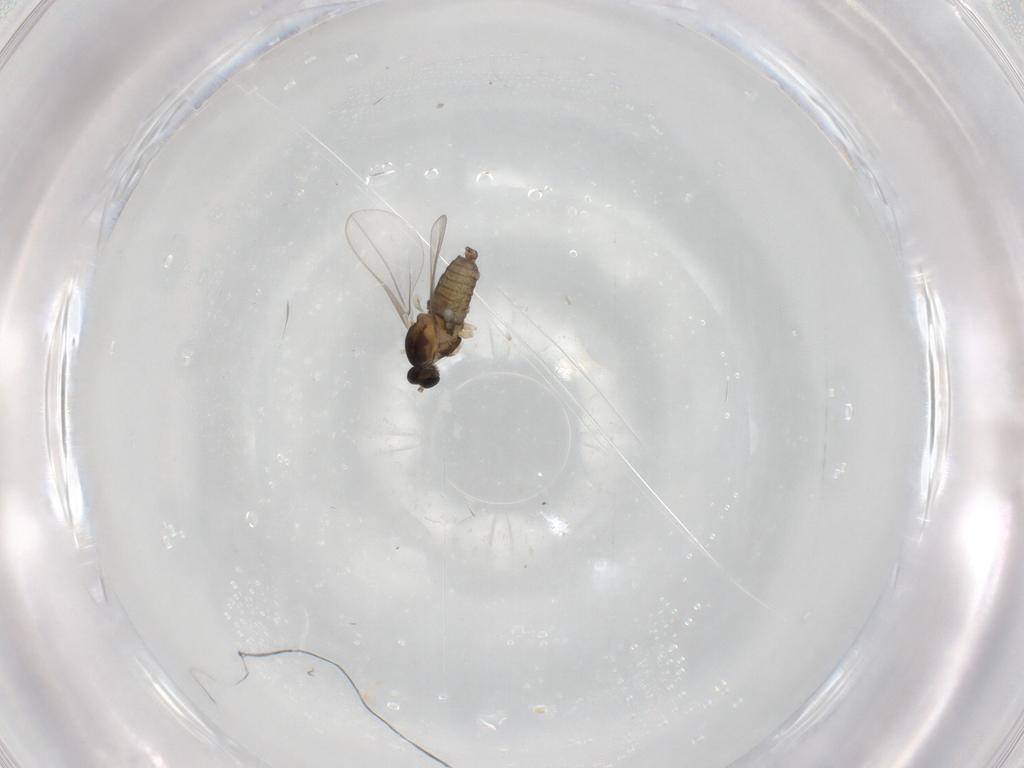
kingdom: Animalia
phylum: Arthropoda
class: Insecta
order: Diptera
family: Cecidomyiidae
